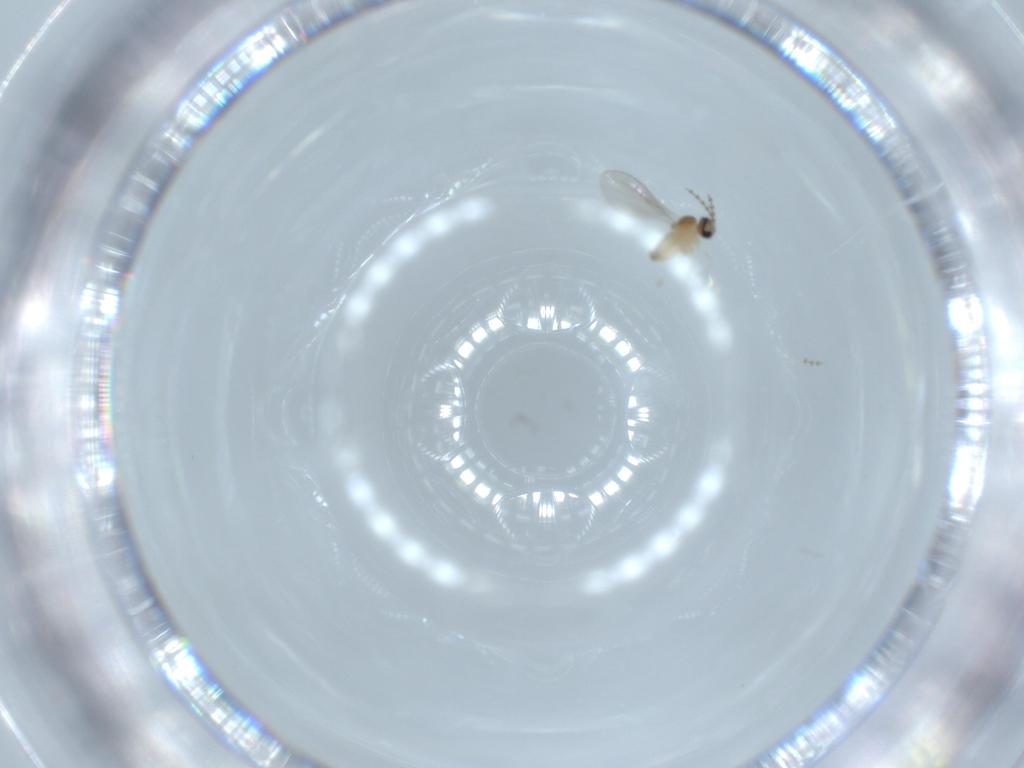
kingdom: Animalia
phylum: Arthropoda
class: Insecta
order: Diptera
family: Cecidomyiidae
